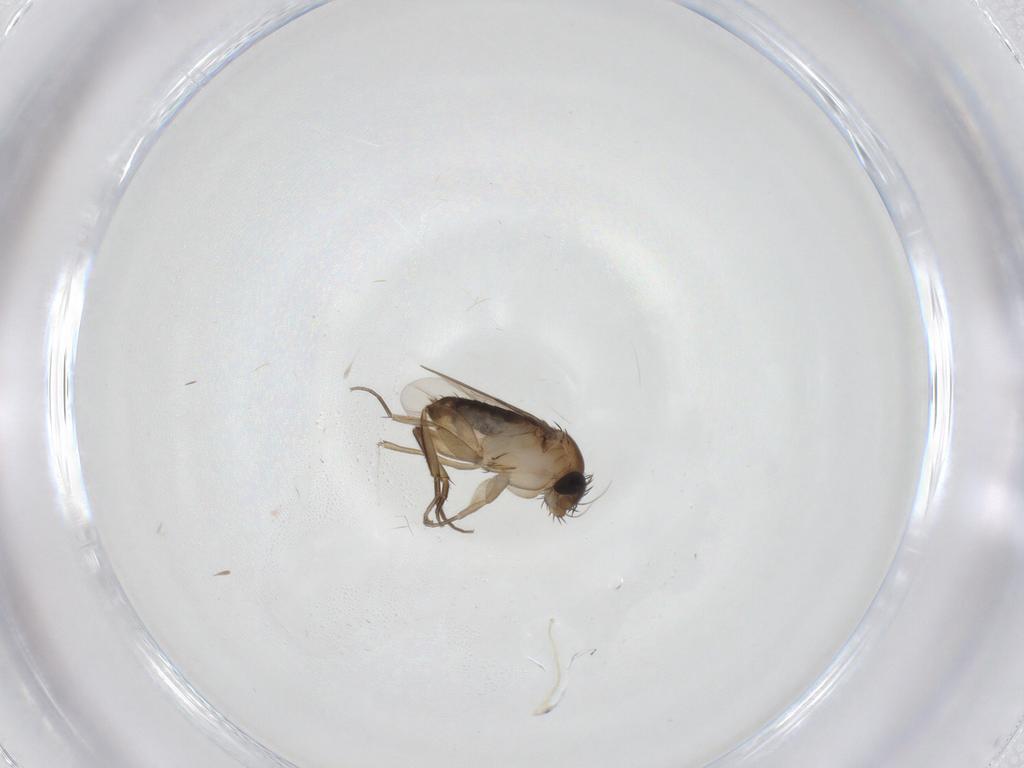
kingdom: Animalia
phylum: Arthropoda
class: Insecta
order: Diptera
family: Phoridae
